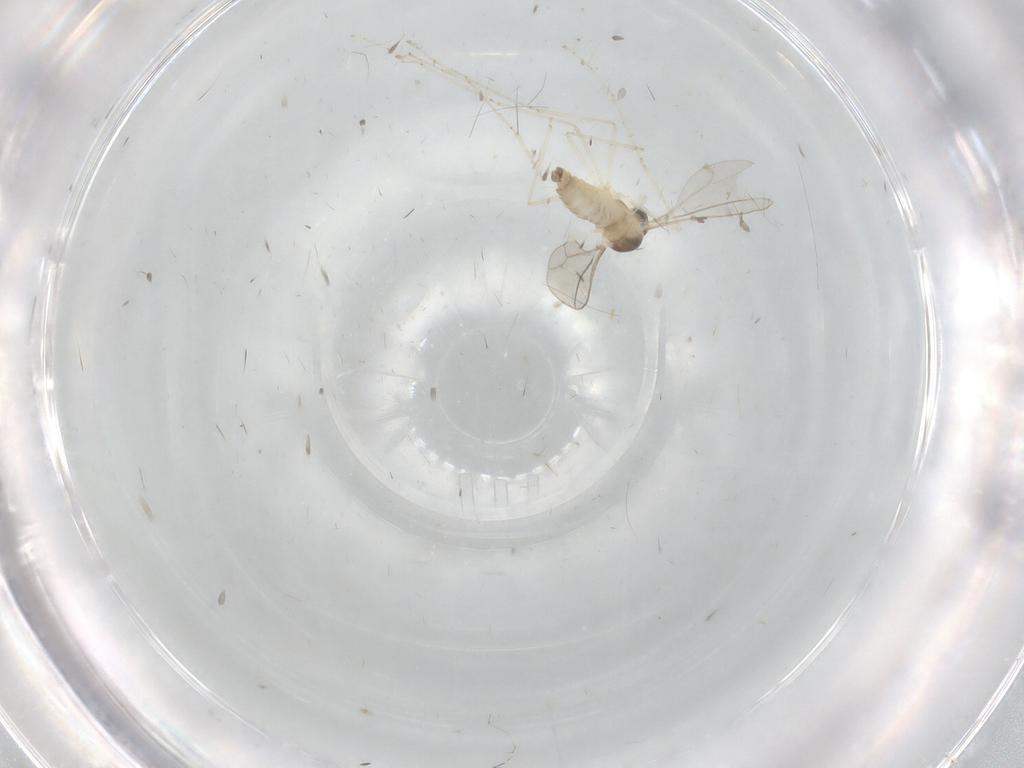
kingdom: Animalia
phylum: Arthropoda
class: Insecta
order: Diptera
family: Cecidomyiidae
